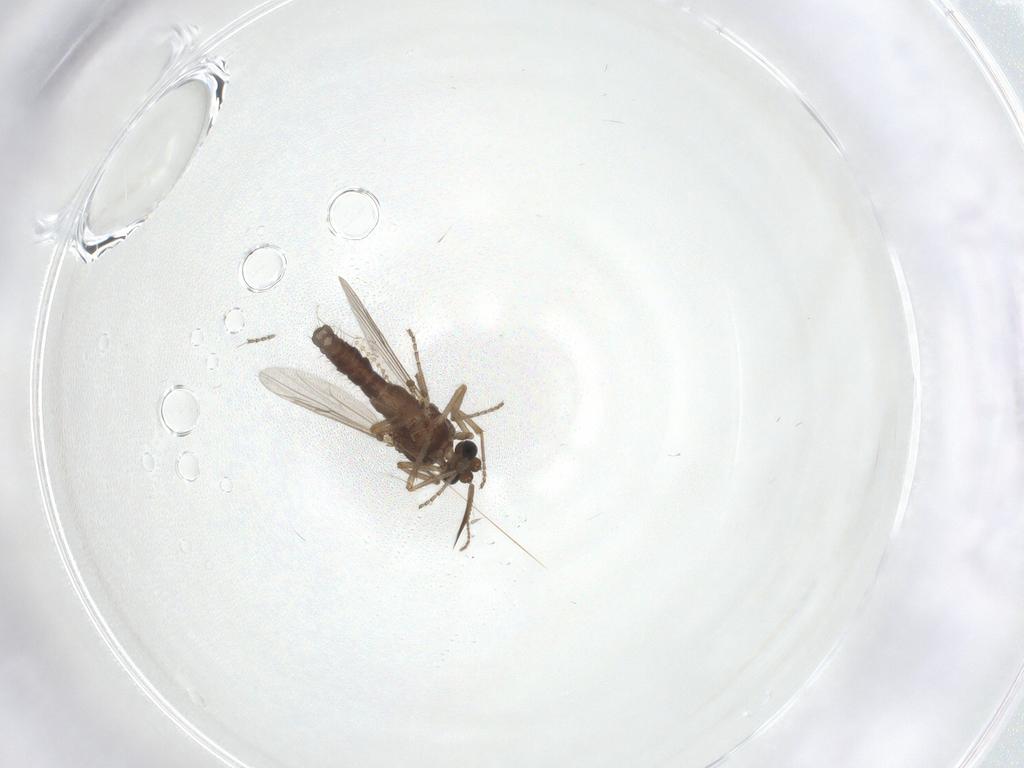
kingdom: Animalia
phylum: Arthropoda
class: Insecta
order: Diptera
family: Ceratopogonidae
